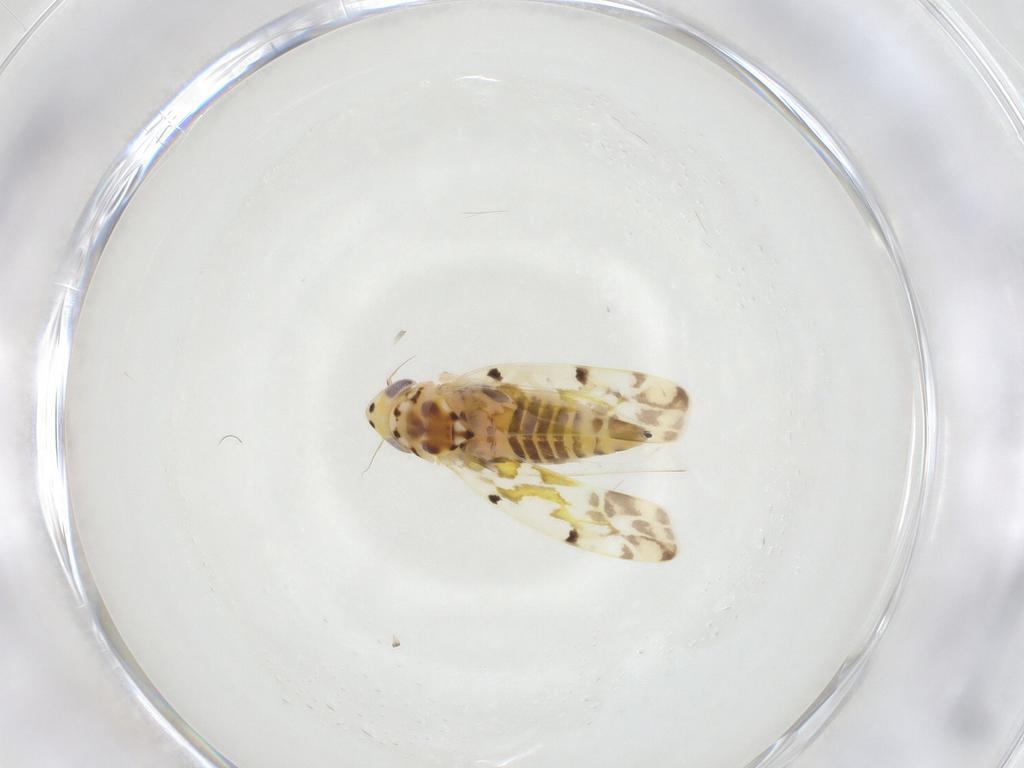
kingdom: Animalia
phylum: Arthropoda
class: Insecta
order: Hemiptera
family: Cicadellidae
